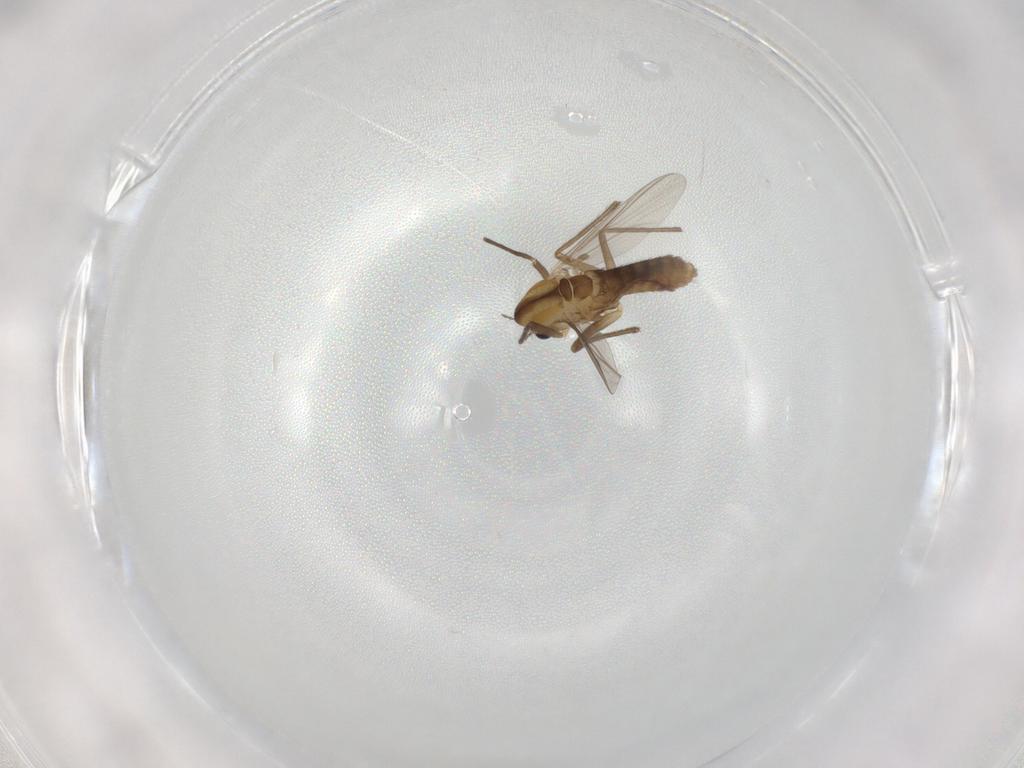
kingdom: Animalia
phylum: Arthropoda
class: Insecta
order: Diptera
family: Chironomidae
